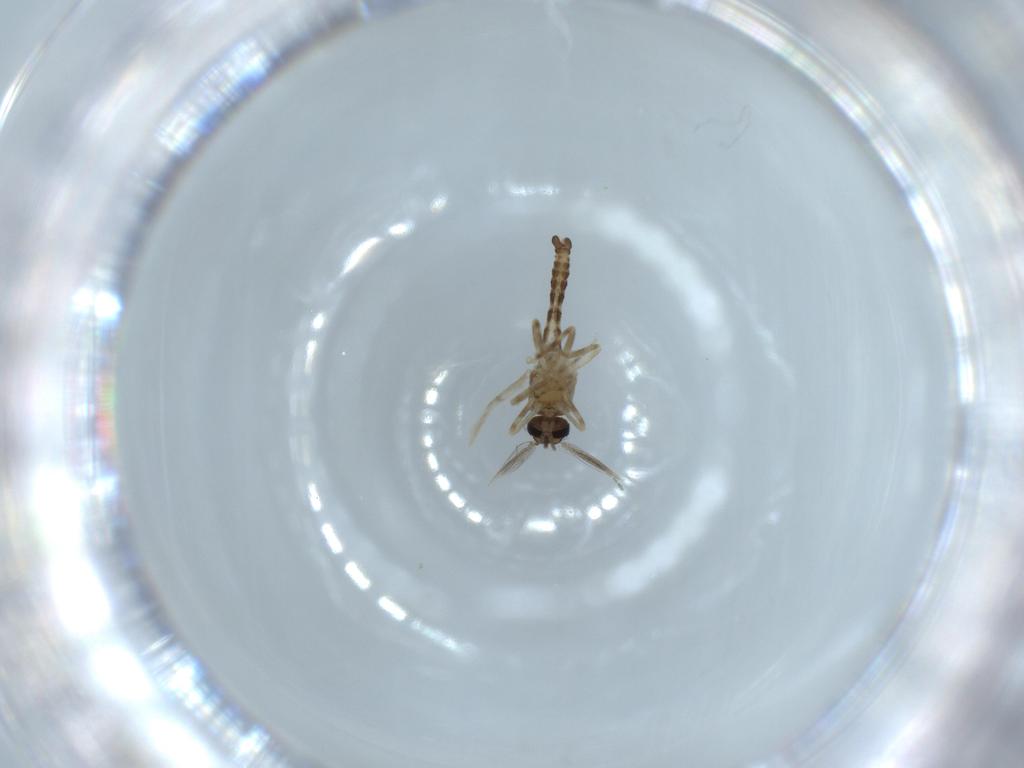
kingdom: Animalia
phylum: Arthropoda
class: Insecta
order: Diptera
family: Ceratopogonidae
